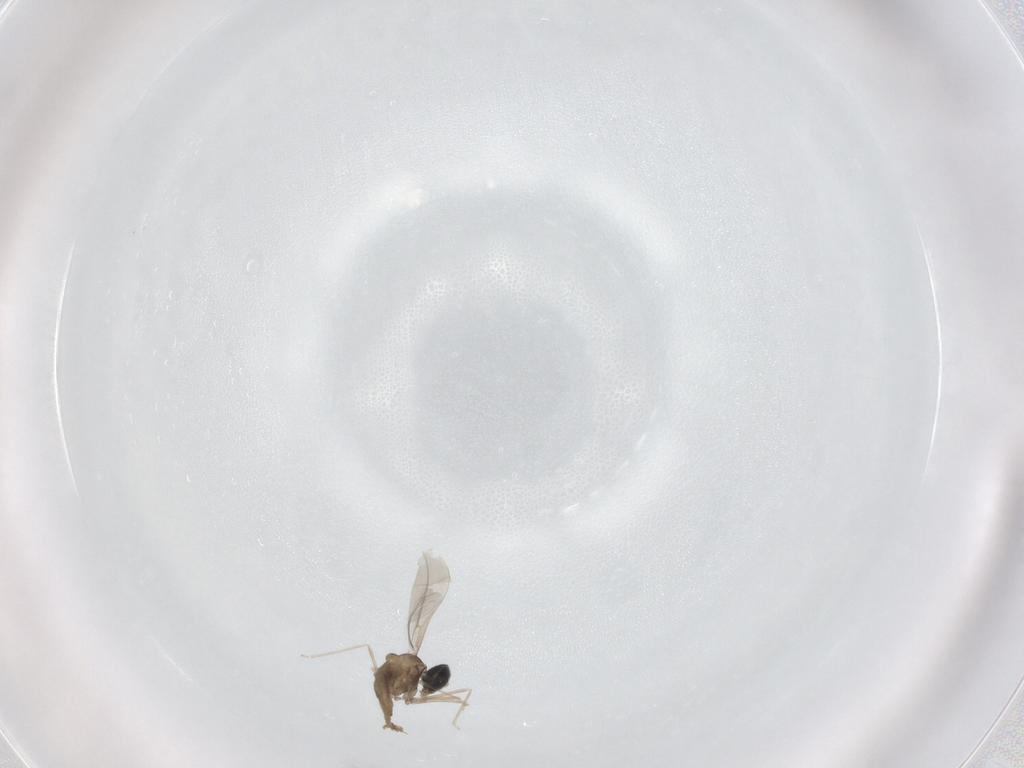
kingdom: Animalia
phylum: Arthropoda
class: Insecta
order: Diptera
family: Cecidomyiidae
